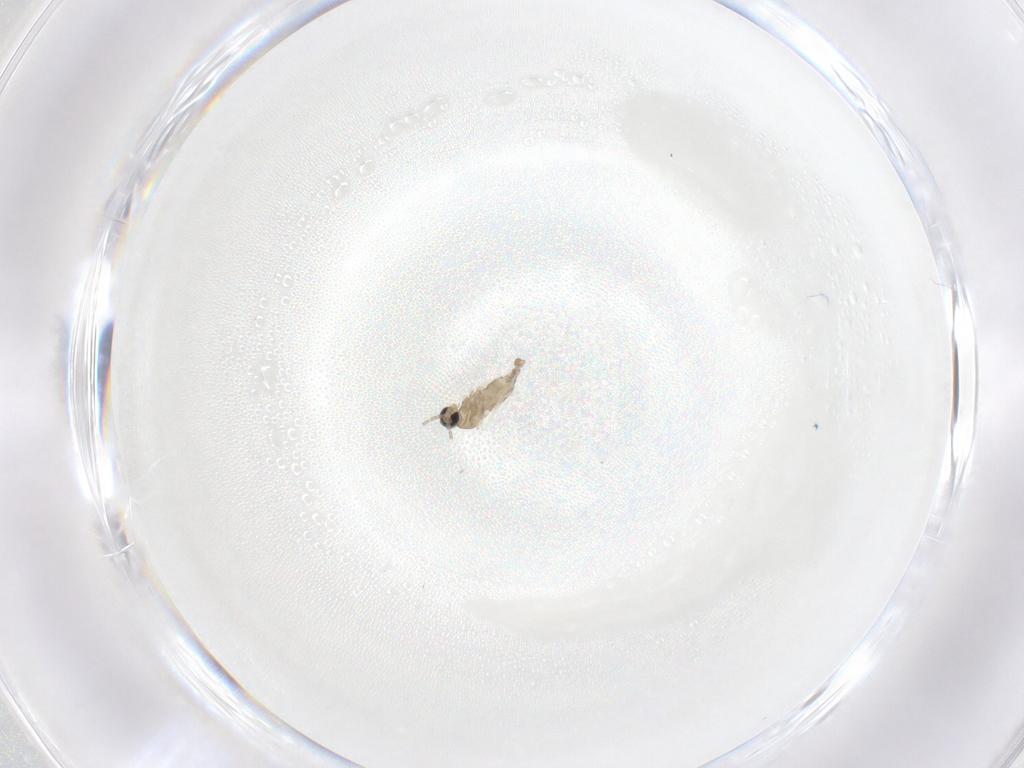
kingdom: Animalia
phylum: Arthropoda
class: Insecta
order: Diptera
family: Cecidomyiidae
